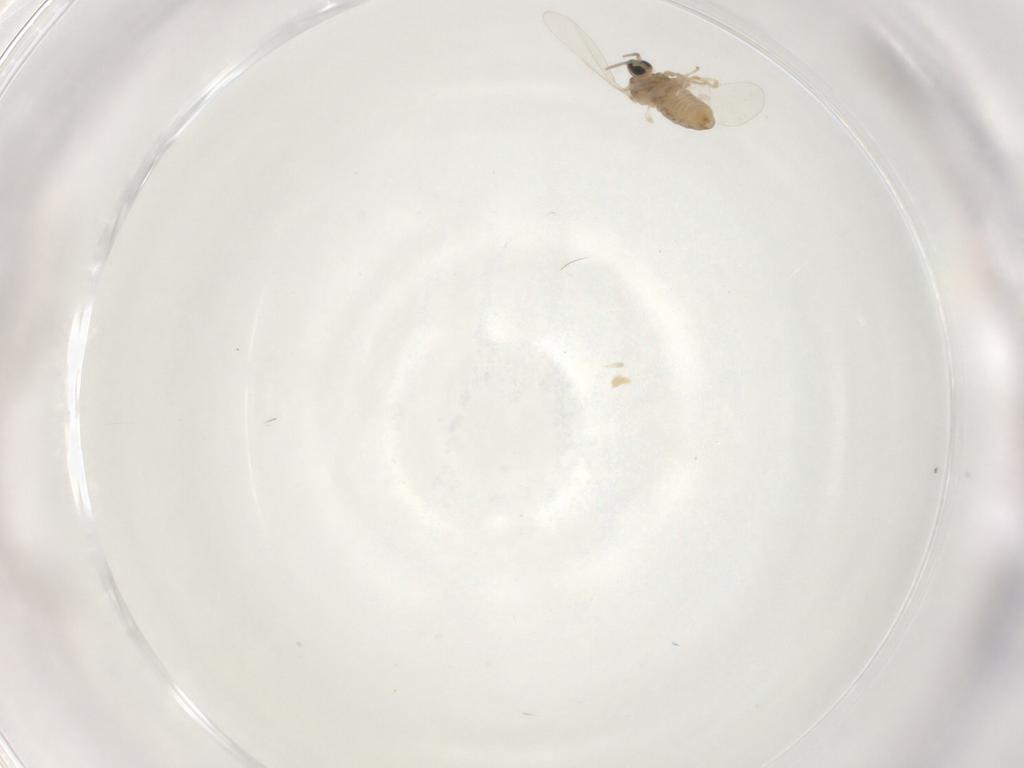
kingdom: Animalia
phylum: Arthropoda
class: Insecta
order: Diptera
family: Cecidomyiidae
